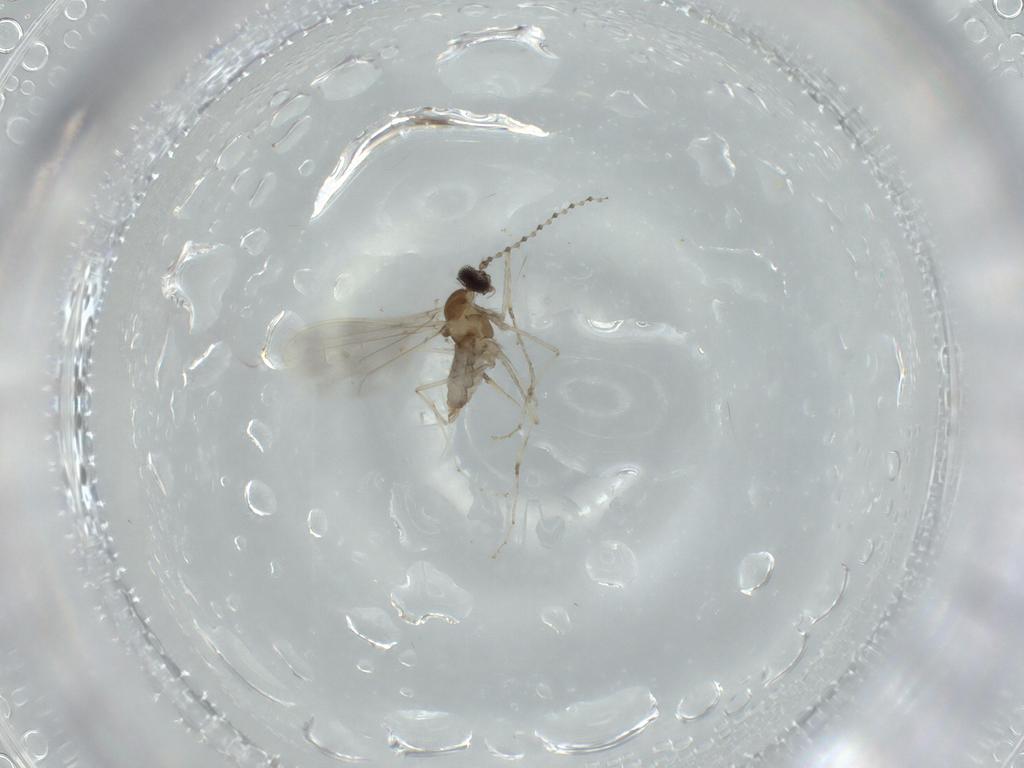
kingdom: Animalia
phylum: Arthropoda
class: Insecta
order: Diptera
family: Cecidomyiidae
